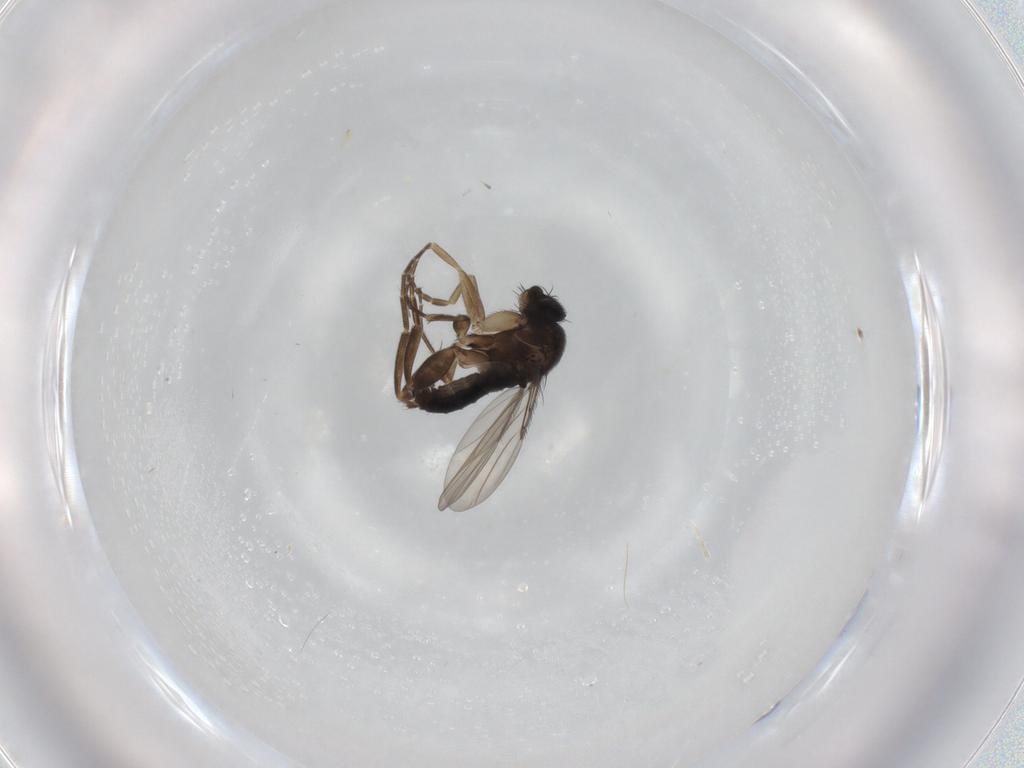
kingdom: Animalia
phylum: Arthropoda
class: Insecta
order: Diptera
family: Phoridae
